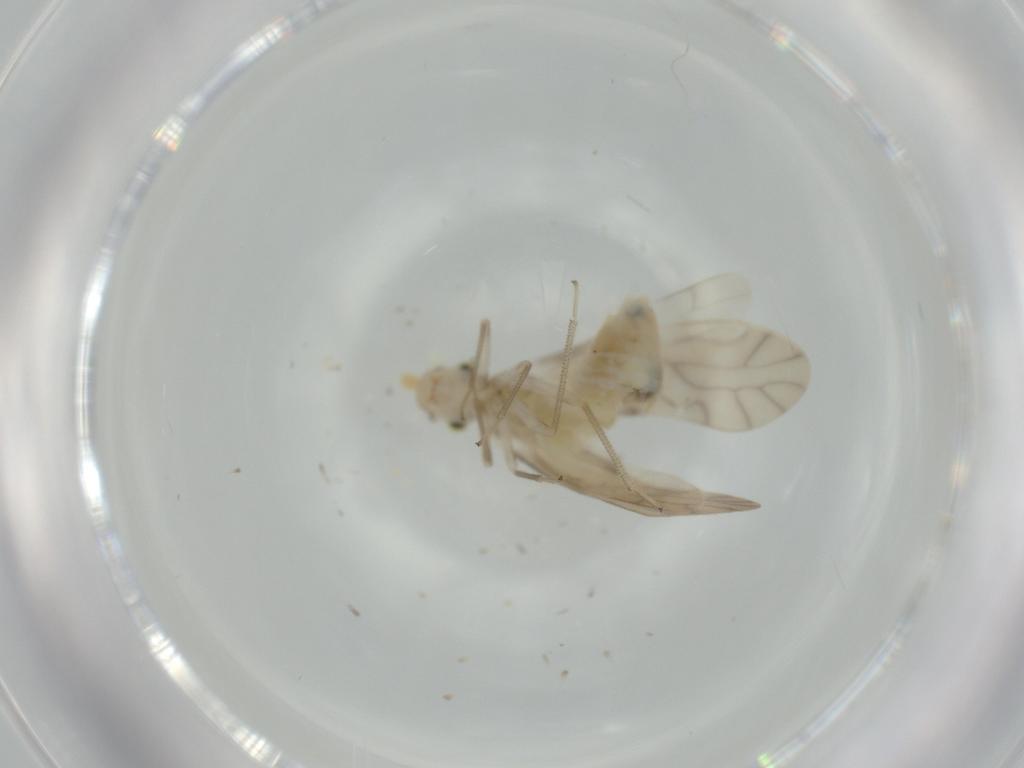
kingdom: Animalia
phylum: Arthropoda
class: Insecta
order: Psocodea
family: Caeciliusidae
